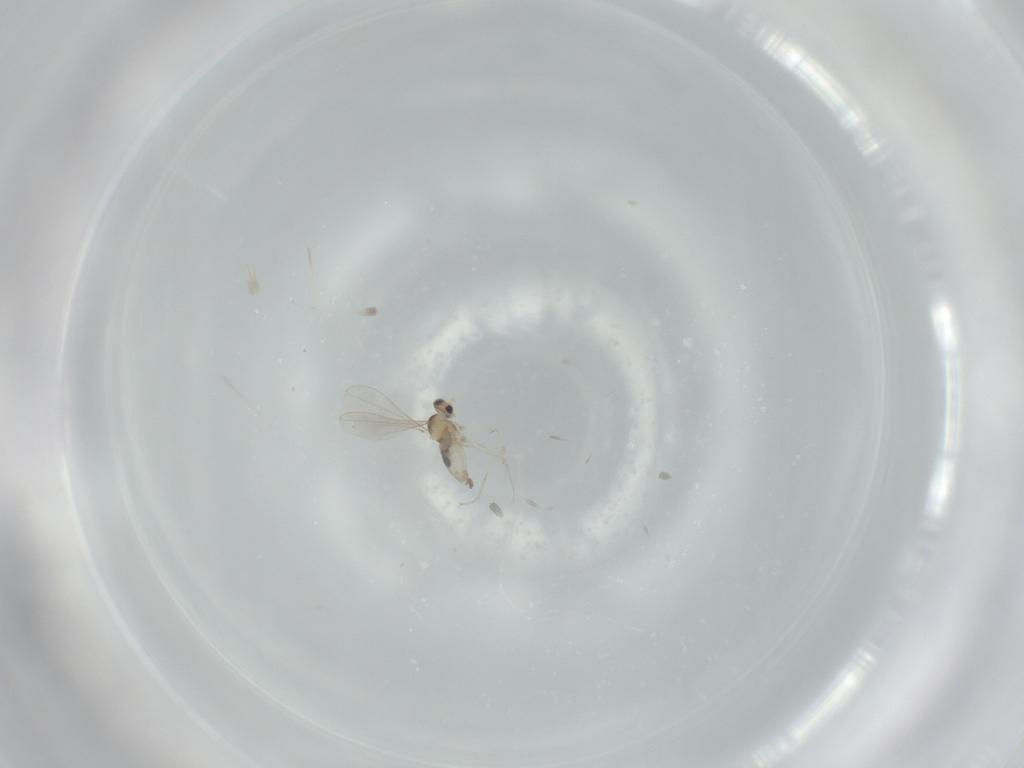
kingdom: Animalia
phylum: Arthropoda
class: Insecta
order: Diptera
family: Cecidomyiidae
